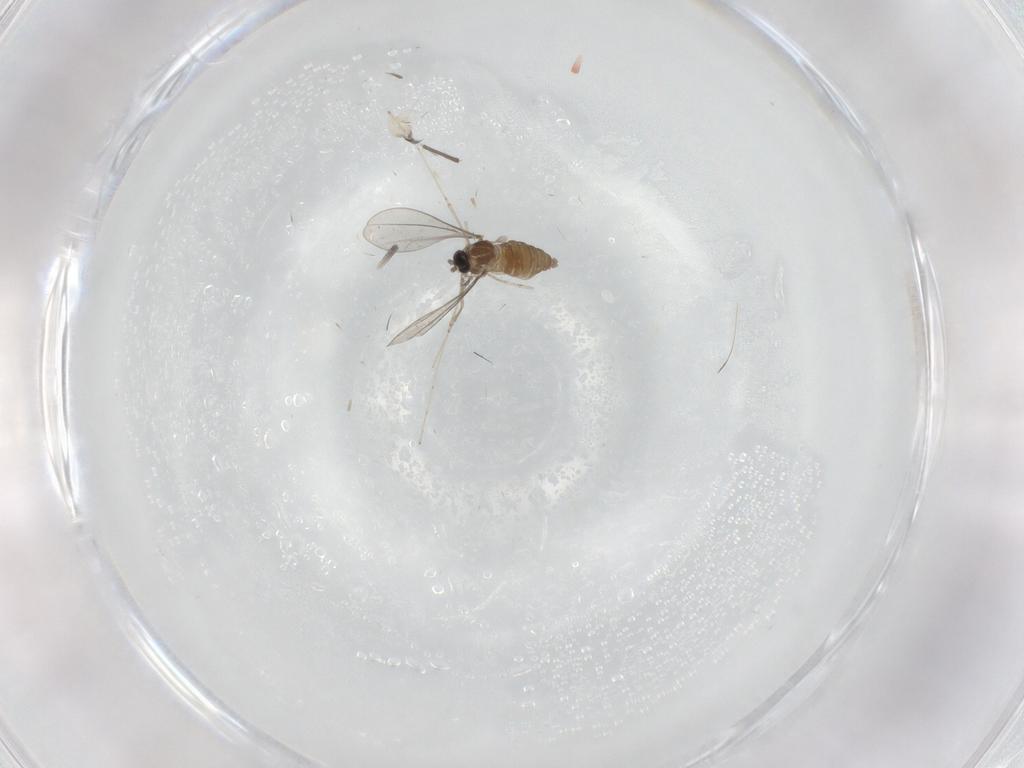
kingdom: Animalia
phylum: Arthropoda
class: Insecta
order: Diptera
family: Cecidomyiidae
